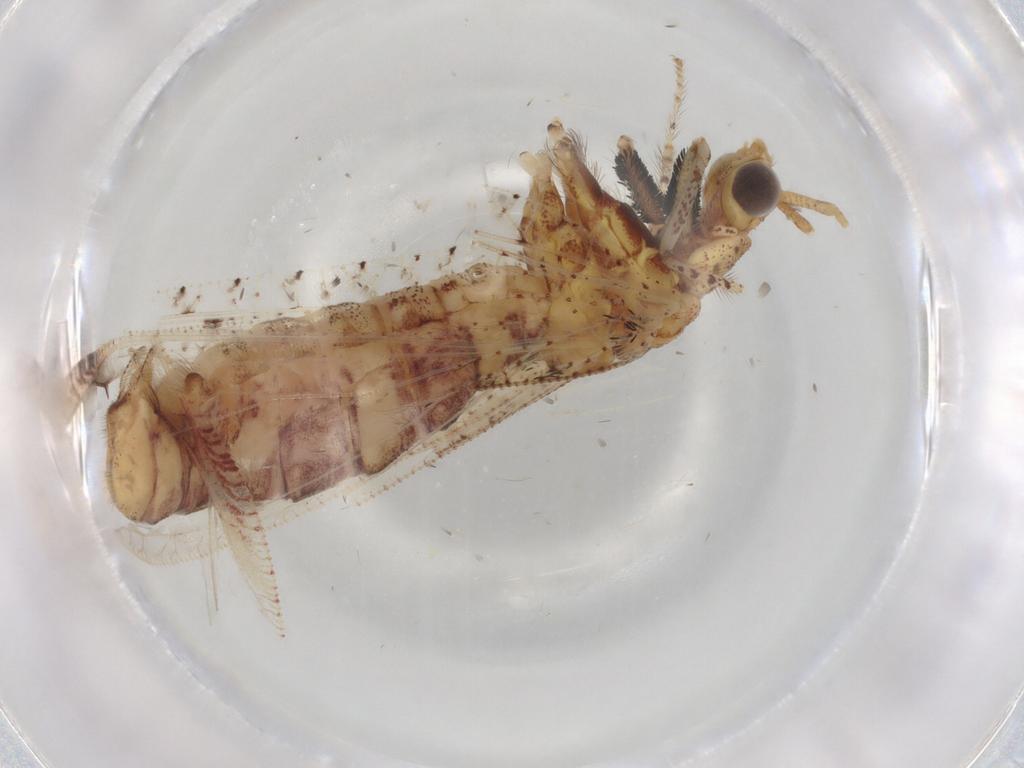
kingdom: Animalia
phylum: Arthropoda
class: Insecta
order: Neuroptera
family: Berothidae
